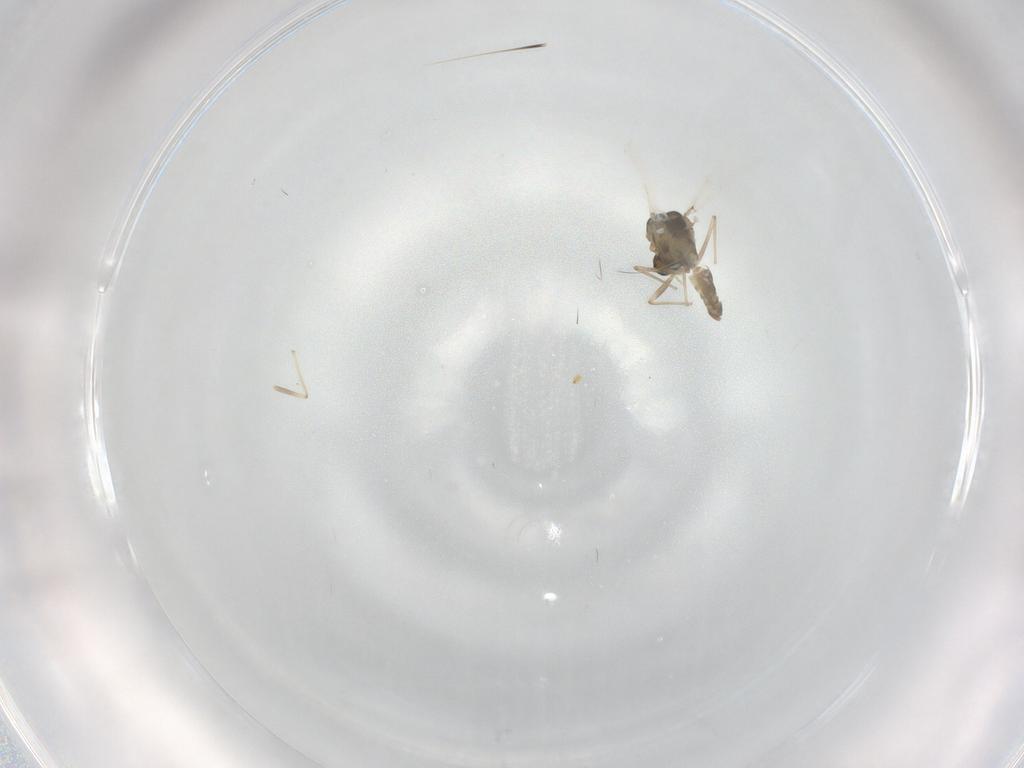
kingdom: Animalia
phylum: Arthropoda
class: Insecta
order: Diptera
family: Chironomidae
